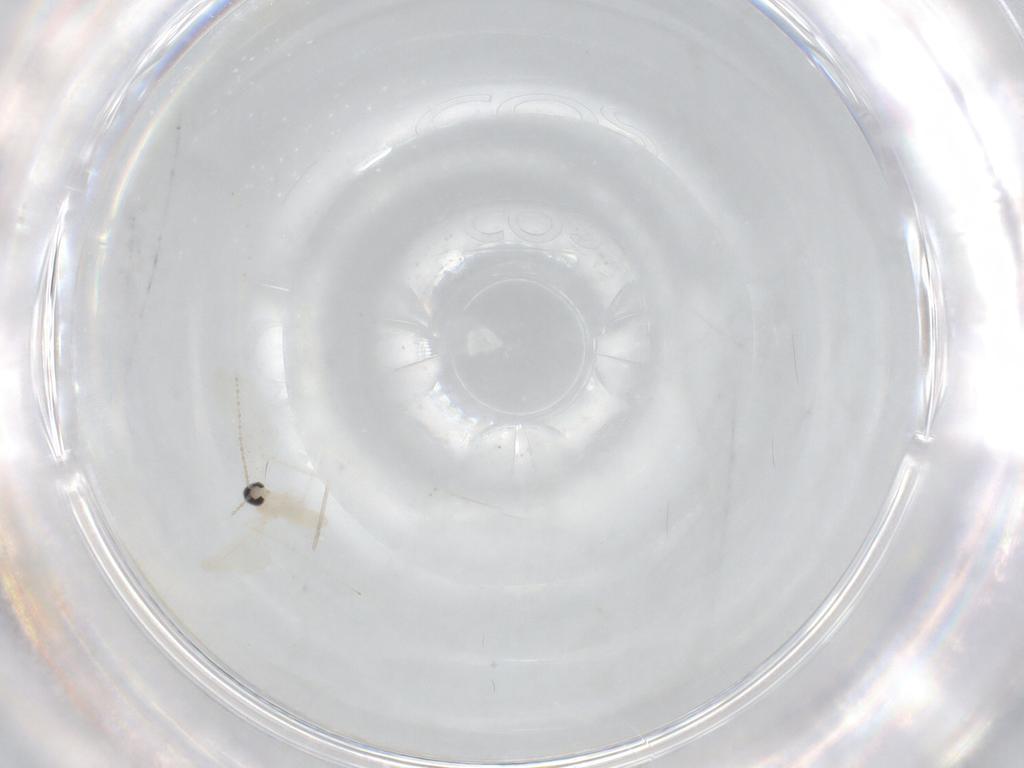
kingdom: Animalia
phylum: Arthropoda
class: Insecta
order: Diptera
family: Cecidomyiidae
